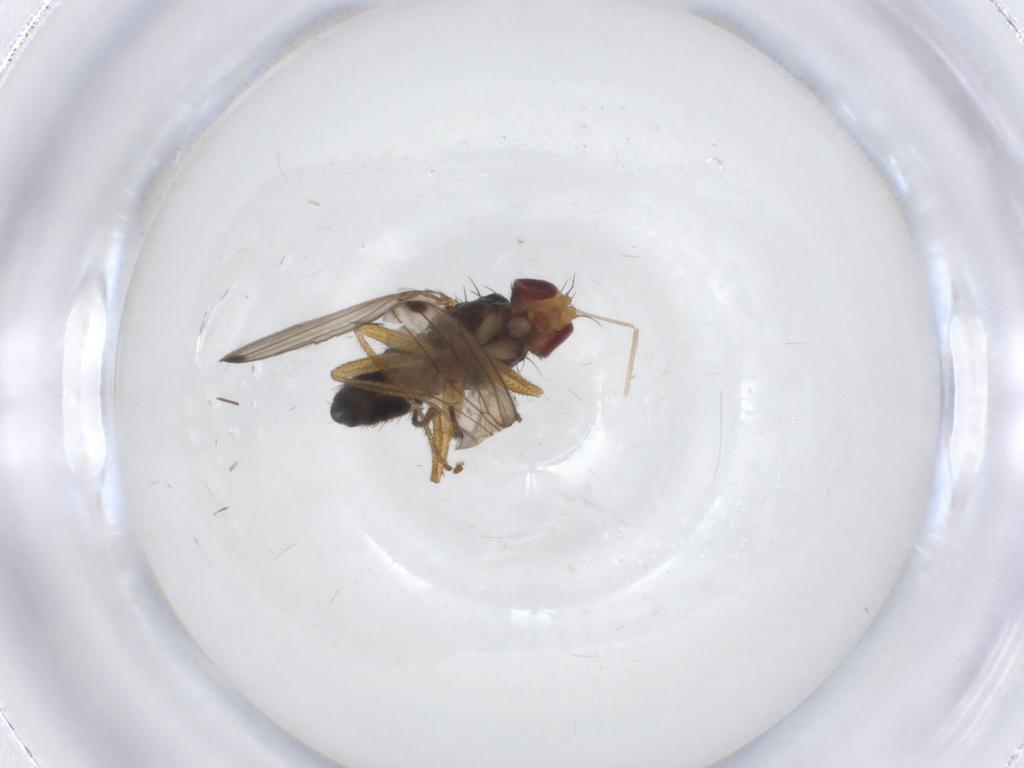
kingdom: Animalia
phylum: Arthropoda
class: Insecta
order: Diptera
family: Drosophilidae
